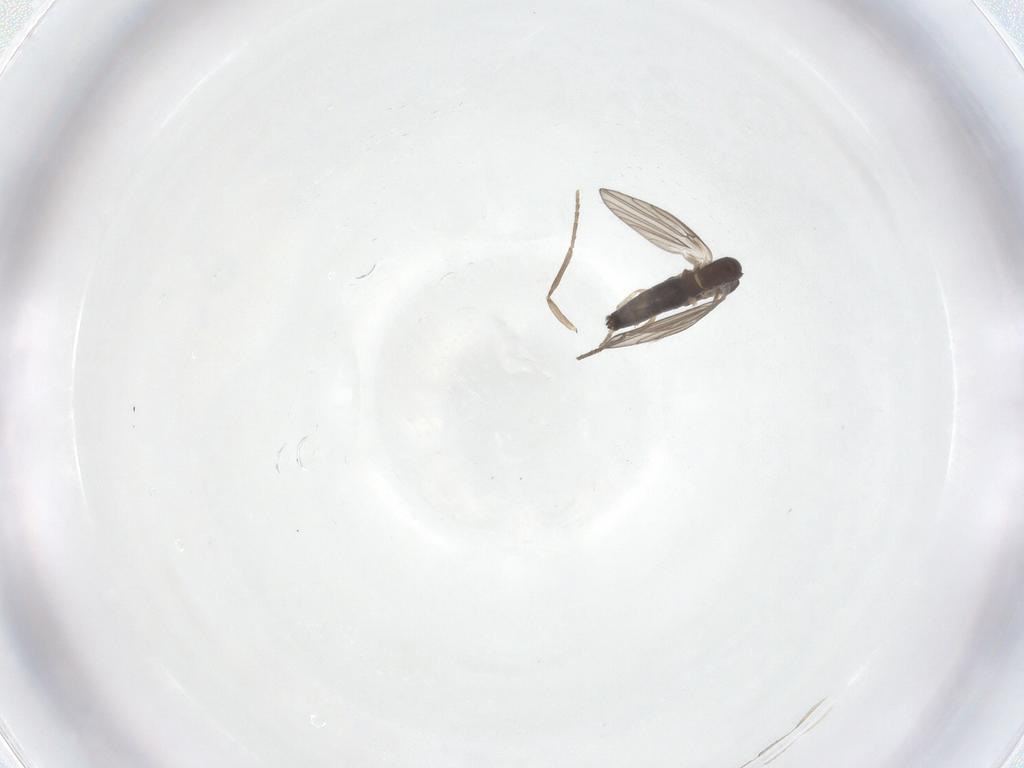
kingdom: Animalia
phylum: Arthropoda
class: Insecta
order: Diptera
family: Psychodidae
